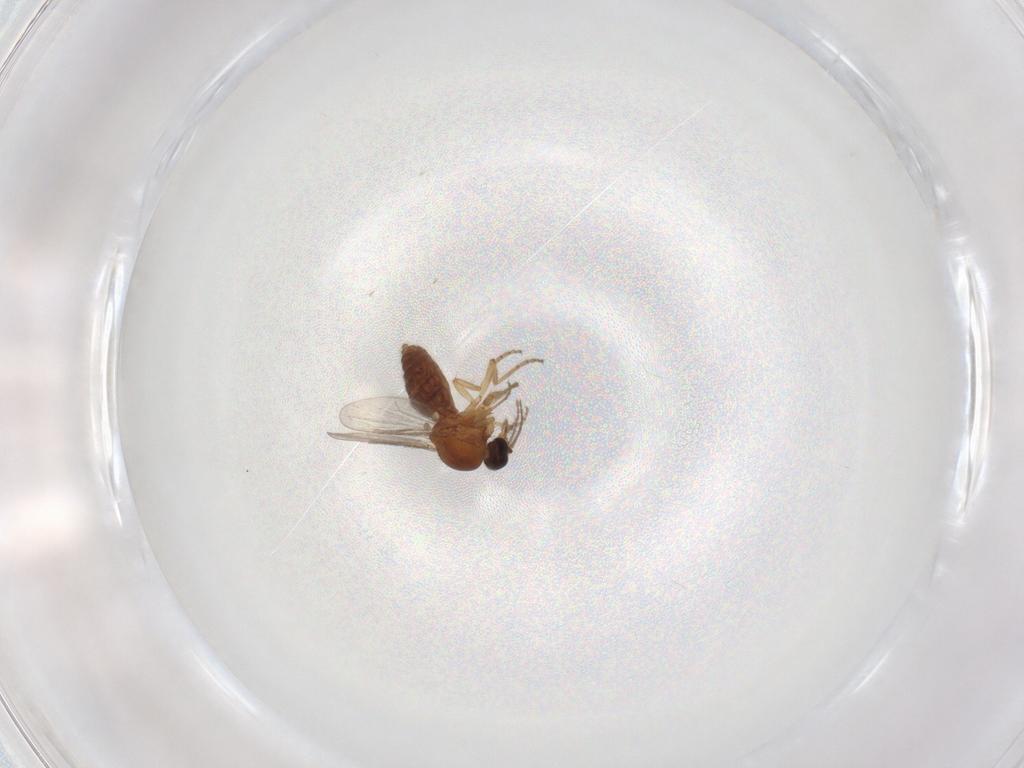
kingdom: Animalia
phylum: Arthropoda
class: Insecta
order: Diptera
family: Ceratopogonidae
